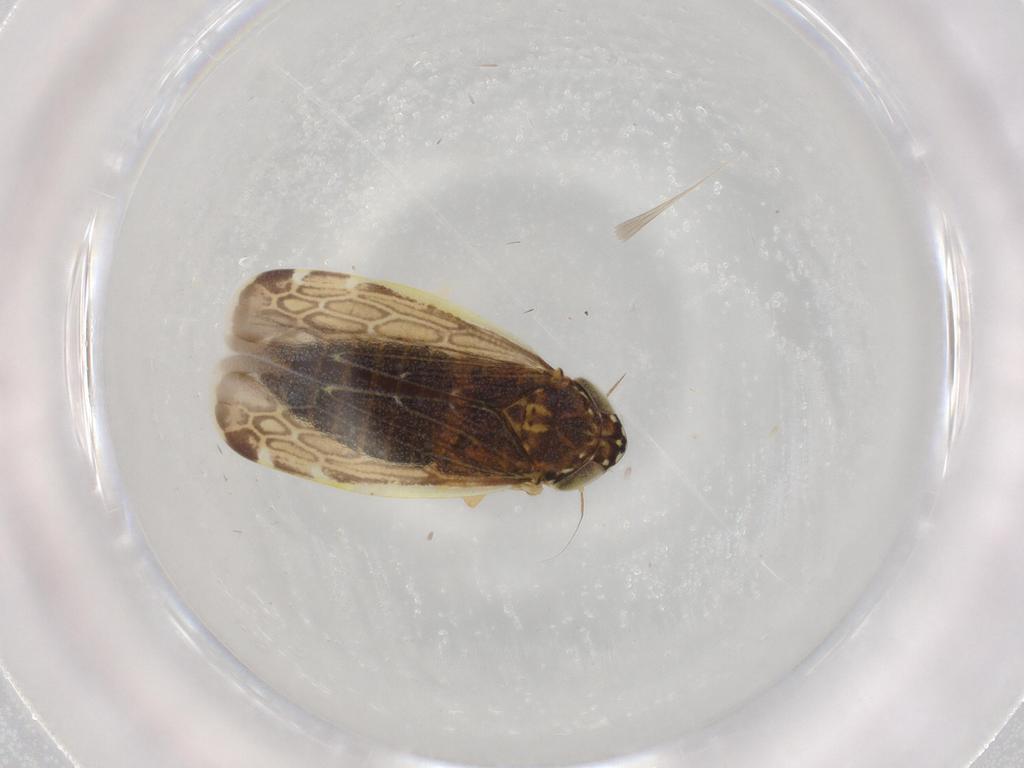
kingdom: Animalia
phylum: Arthropoda
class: Insecta
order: Hemiptera
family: Cicadellidae
